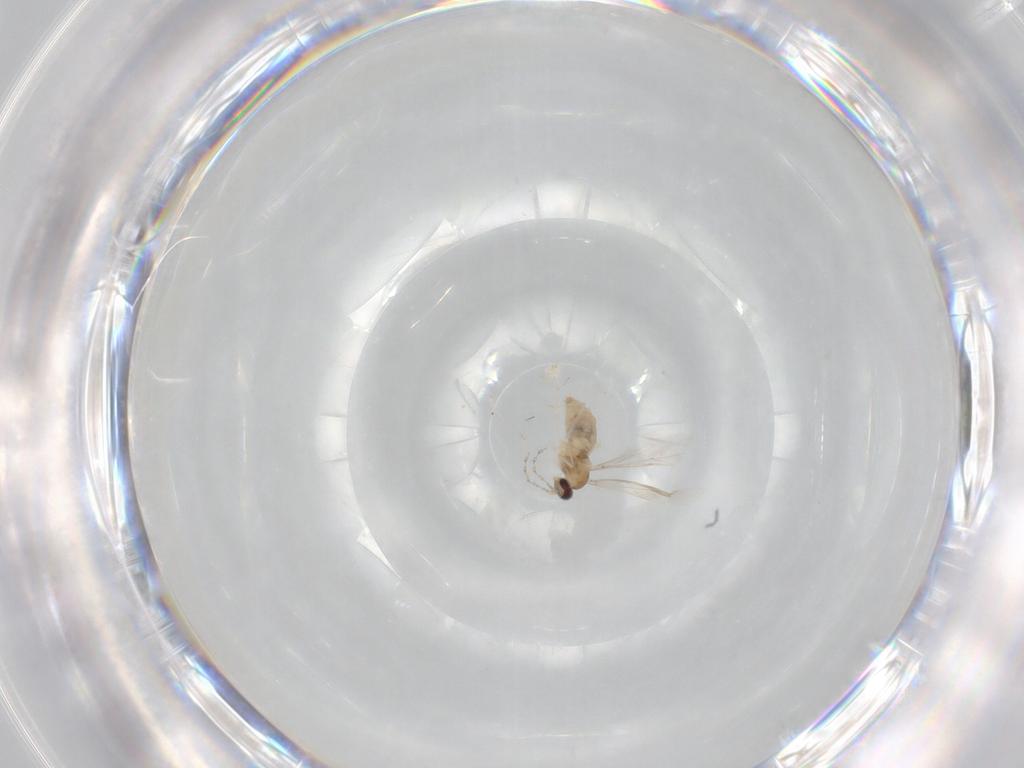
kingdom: Animalia
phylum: Arthropoda
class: Insecta
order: Diptera
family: Cecidomyiidae
